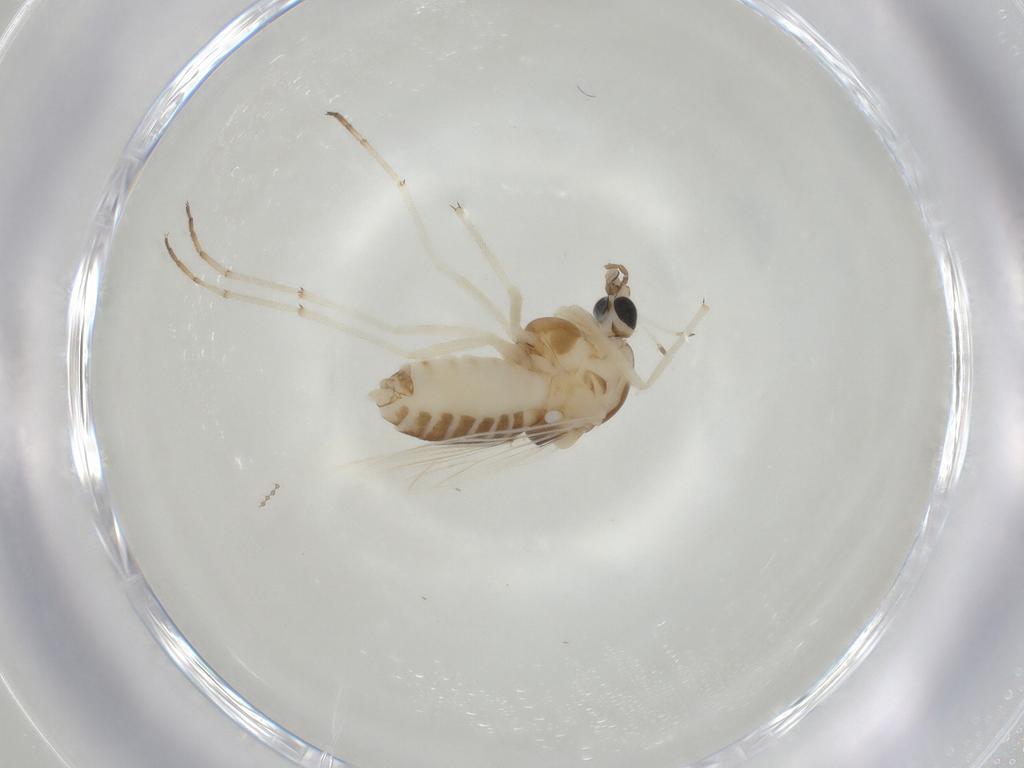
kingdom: Animalia
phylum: Arthropoda
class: Insecta
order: Diptera
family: Chironomidae
